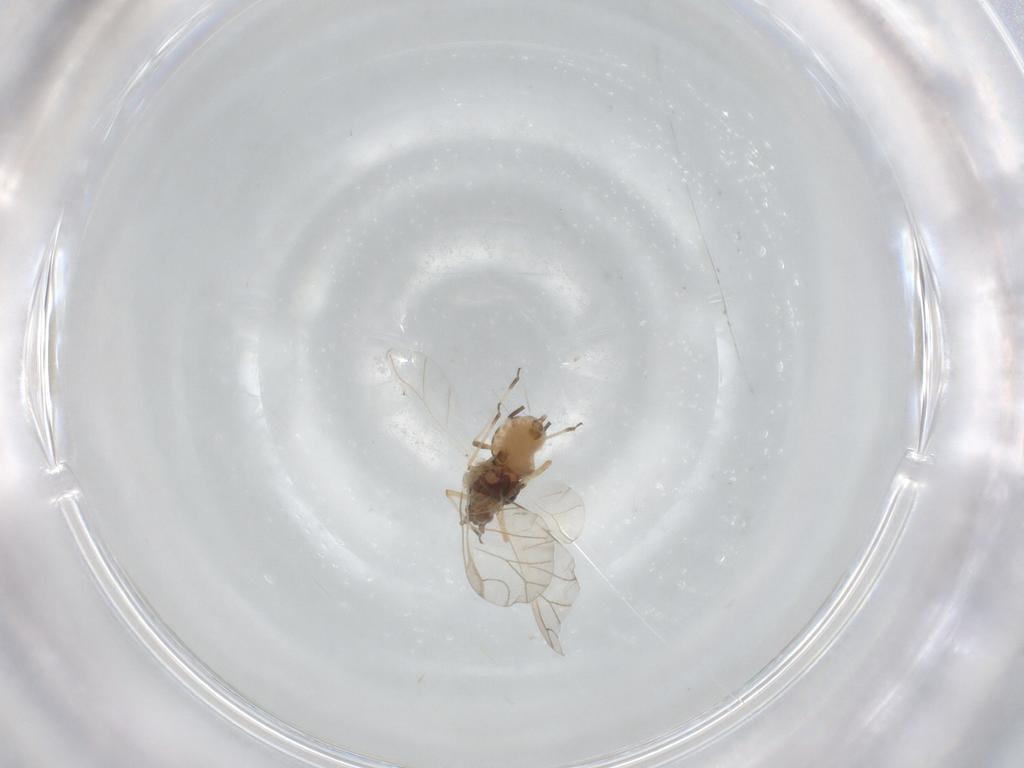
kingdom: Animalia
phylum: Arthropoda
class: Insecta
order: Hemiptera
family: Aphididae
